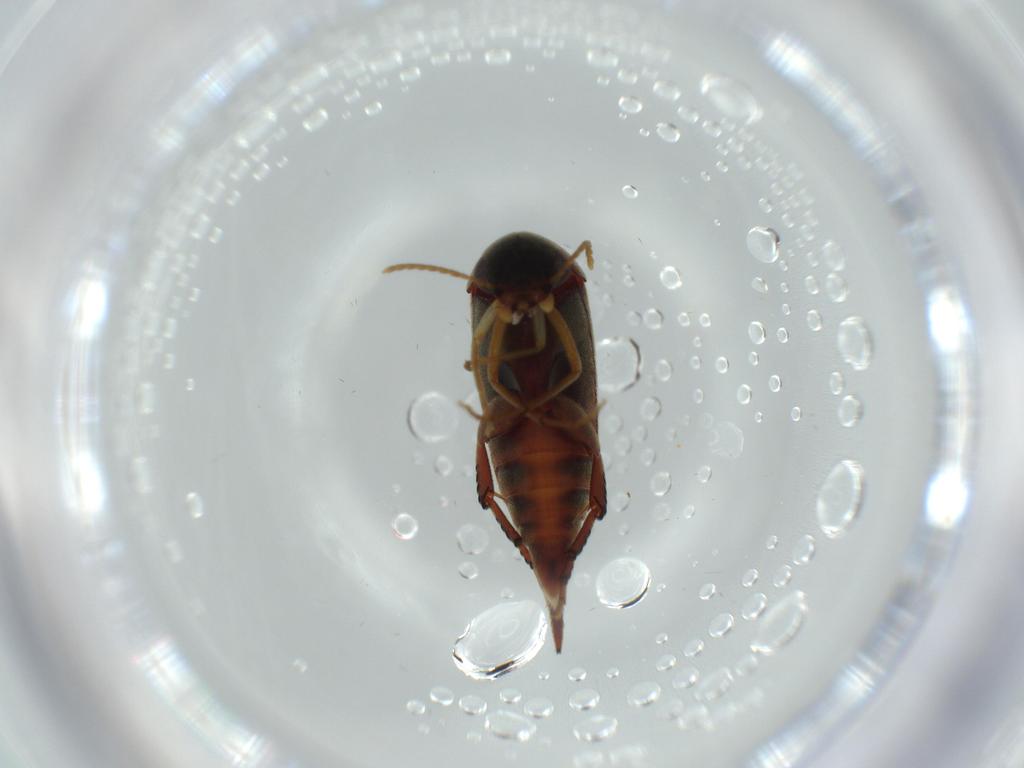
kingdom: Animalia
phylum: Arthropoda
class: Insecta
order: Coleoptera
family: Mordellidae
